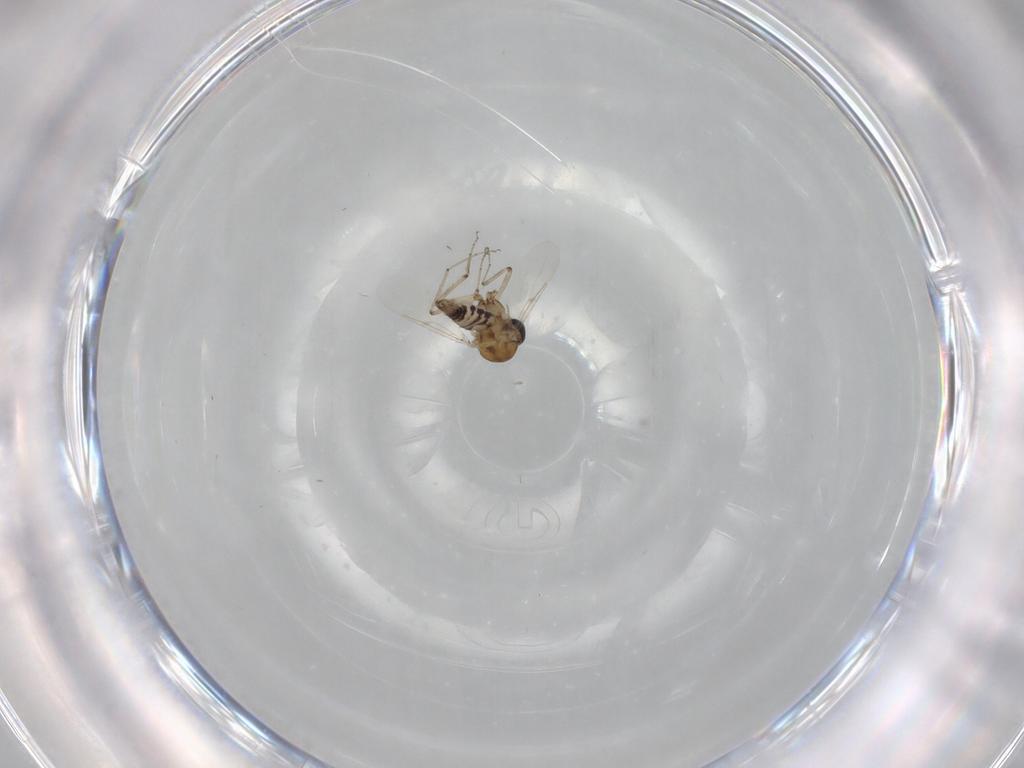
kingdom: Animalia
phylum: Arthropoda
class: Insecta
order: Diptera
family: Ceratopogonidae
